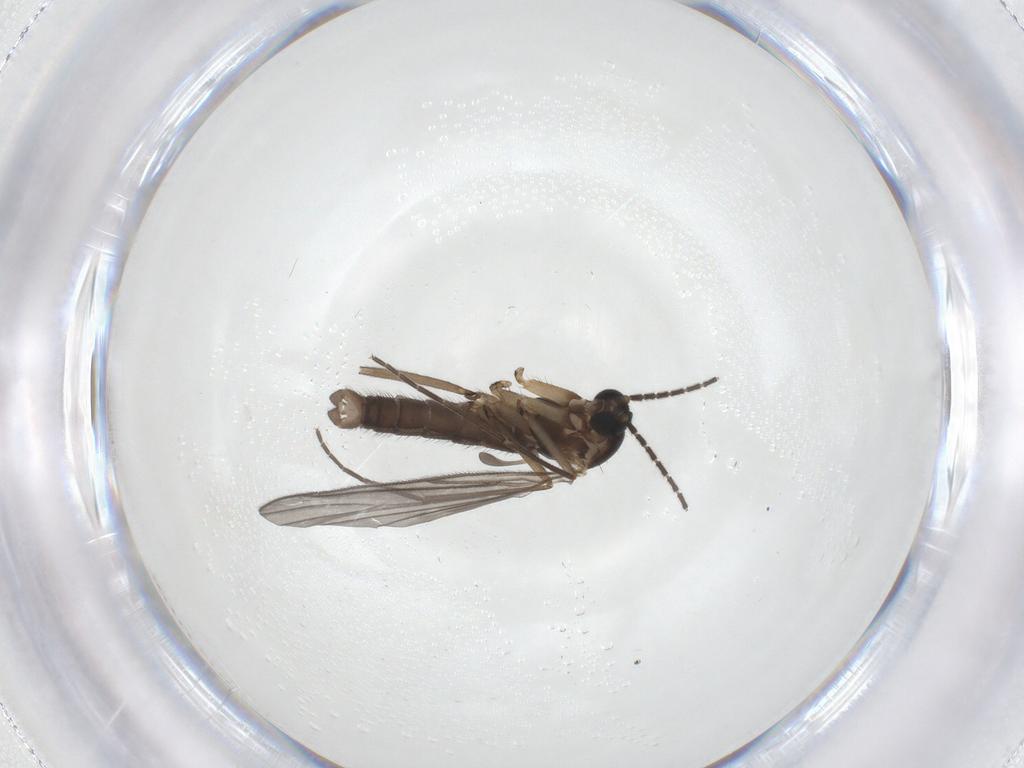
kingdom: Animalia
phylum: Arthropoda
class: Insecta
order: Diptera
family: Sciaridae
